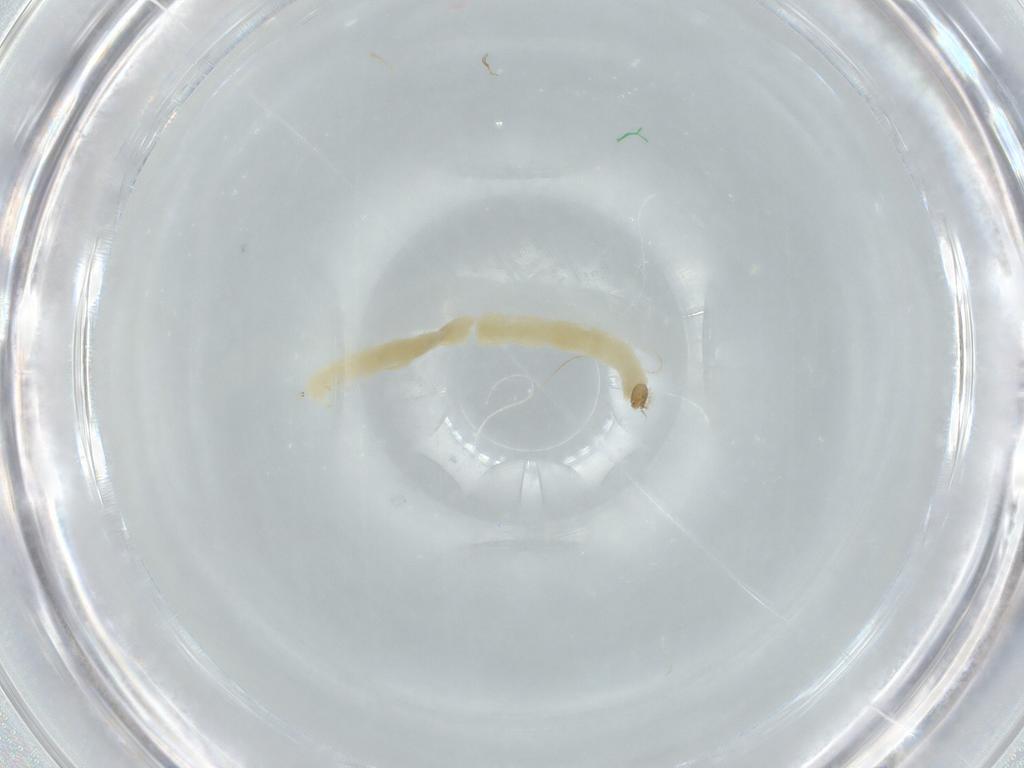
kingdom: Animalia
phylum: Arthropoda
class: Insecta
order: Diptera
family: Chironomidae
